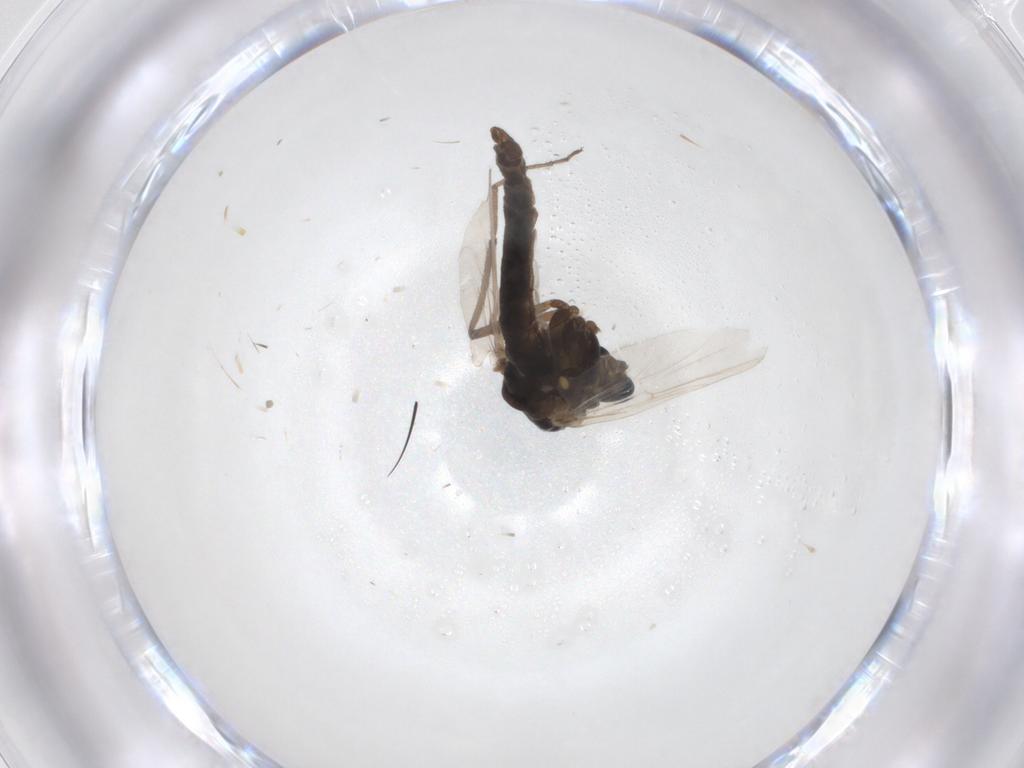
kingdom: Animalia
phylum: Arthropoda
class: Insecta
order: Diptera
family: Chironomidae
